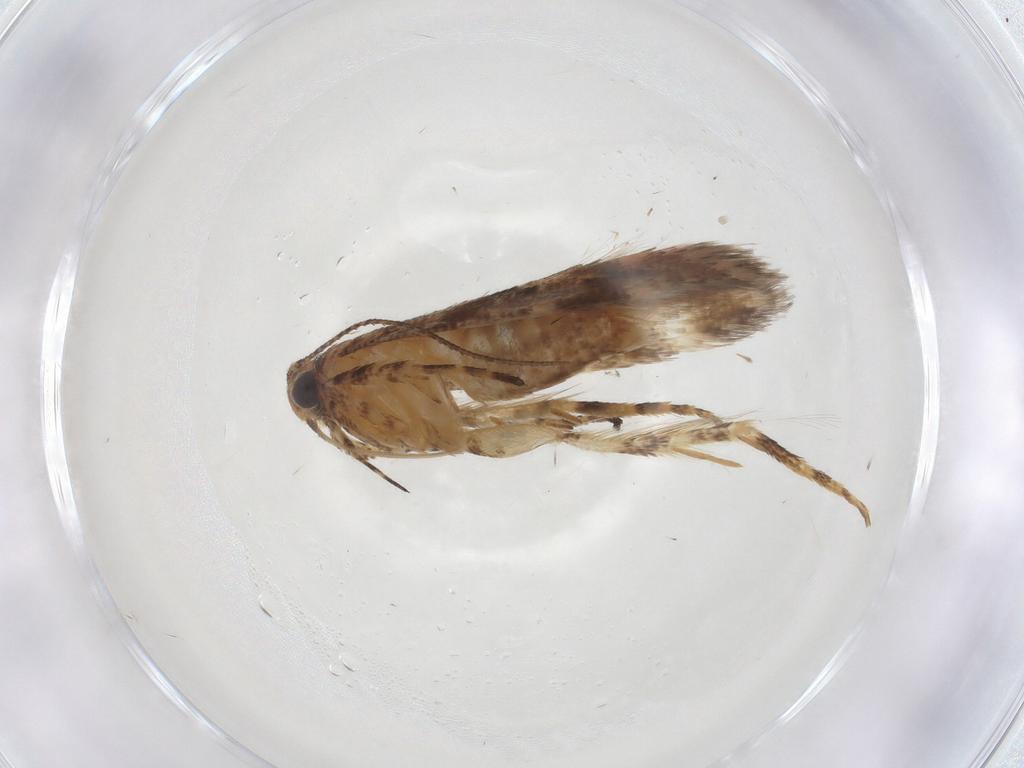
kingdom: Animalia
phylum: Arthropoda
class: Insecta
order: Lepidoptera
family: Gelechiidae
